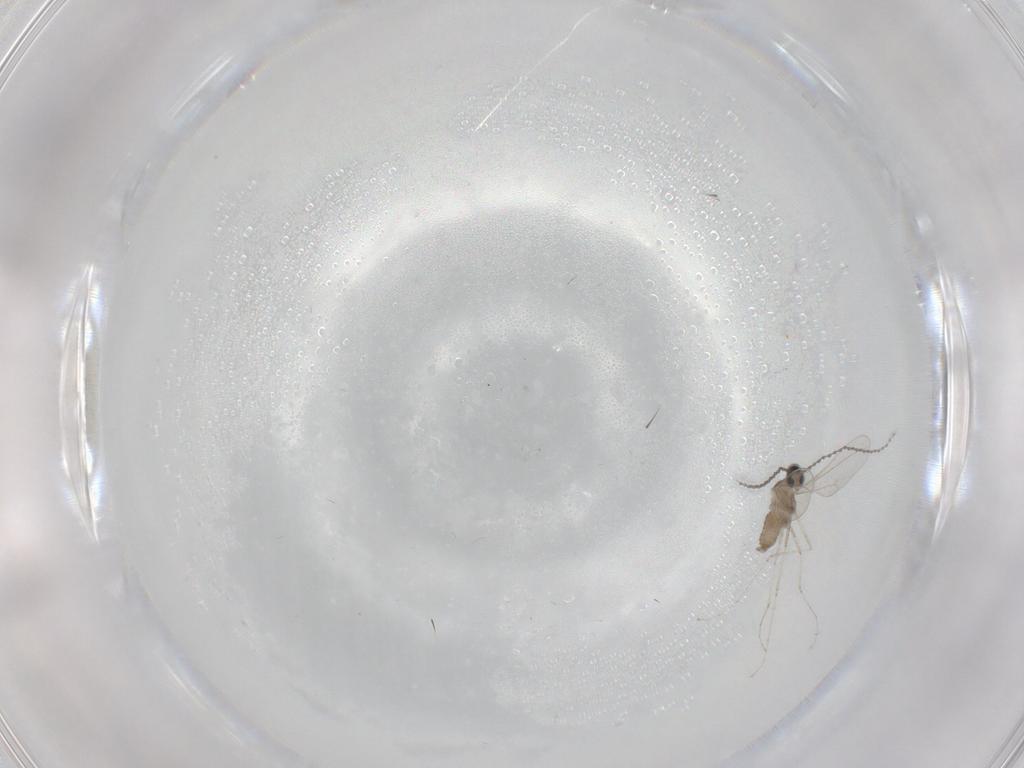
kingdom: Animalia
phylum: Arthropoda
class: Insecta
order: Diptera
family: Cecidomyiidae
